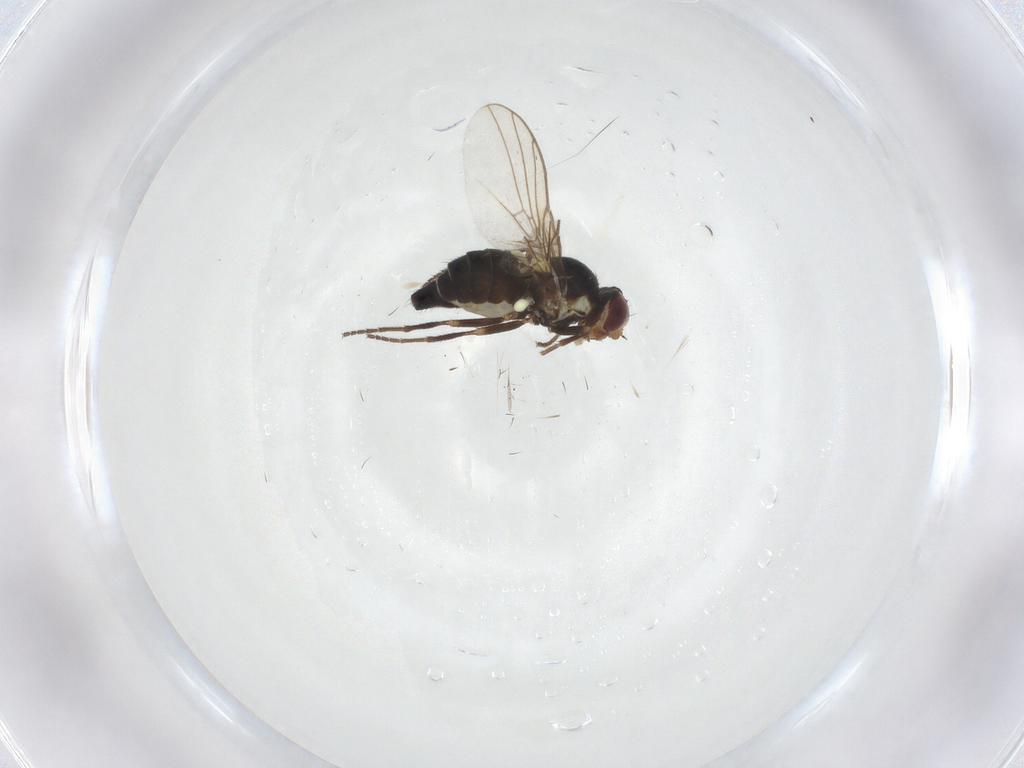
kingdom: Animalia
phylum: Arthropoda
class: Insecta
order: Diptera
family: Agromyzidae
